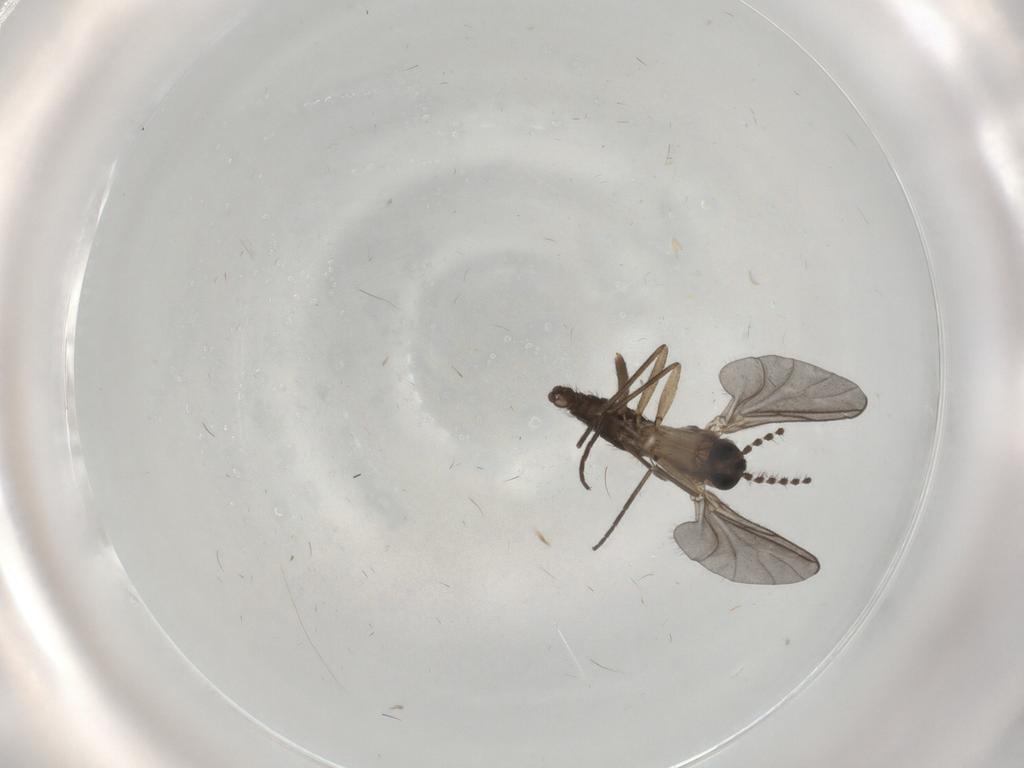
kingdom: Animalia
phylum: Arthropoda
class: Insecta
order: Diptera
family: Sciaridae
